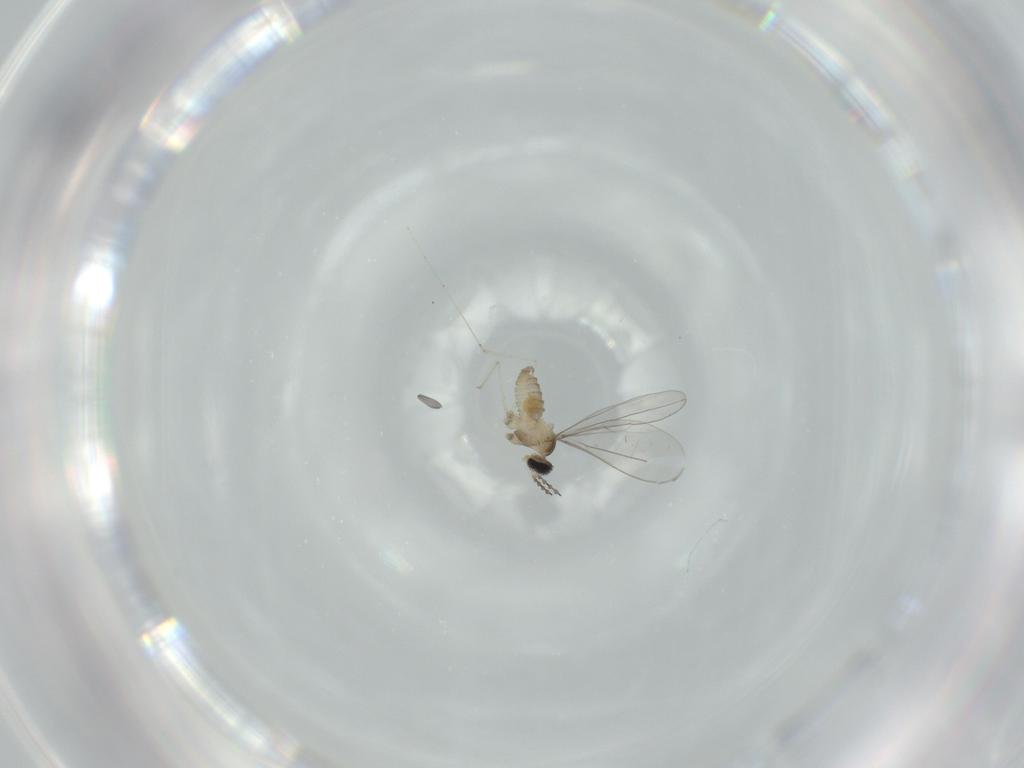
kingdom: Animalia
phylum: Arthropoda
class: Insecta
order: Diptera
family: Cecidomyiidae
